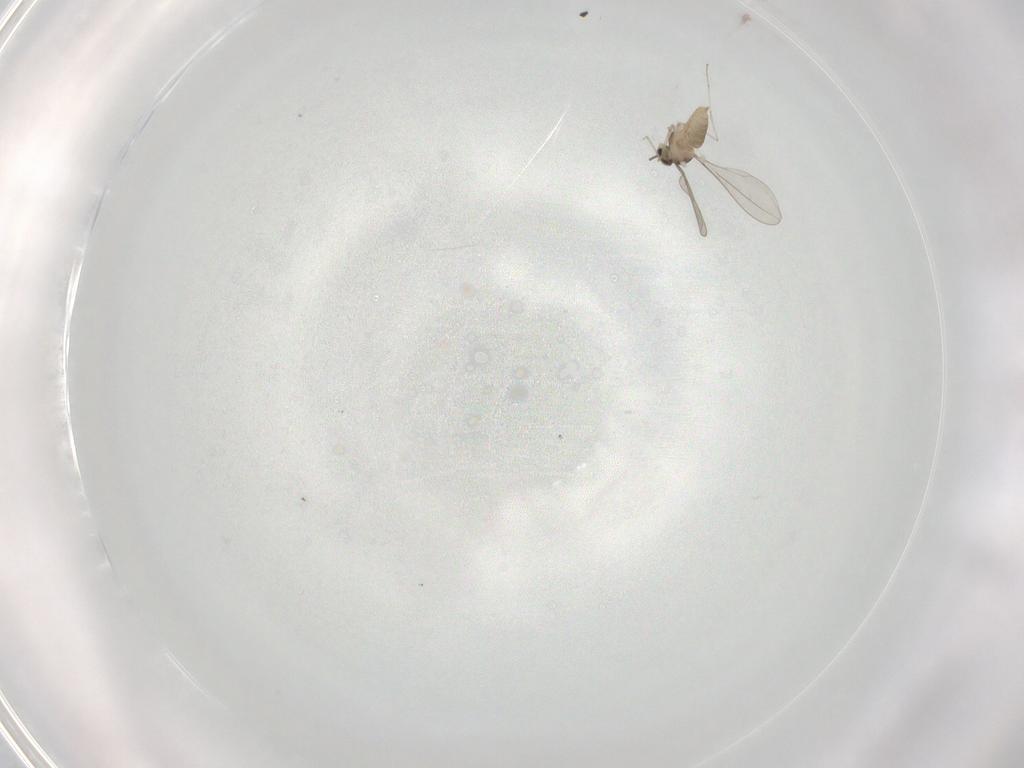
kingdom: Animalia
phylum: Arthropoda
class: Insecta
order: Diptera
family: Cecidomyiidae
